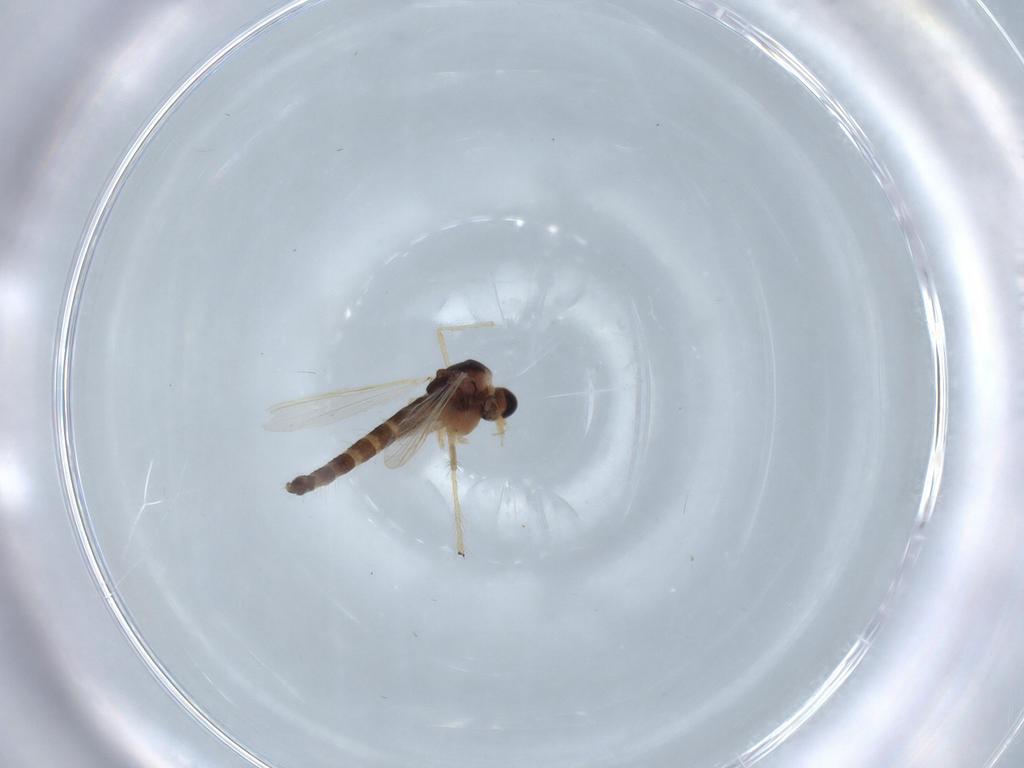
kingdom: Animalia
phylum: Arthropoda
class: Insecta
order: Diptera
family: Chironomidae
